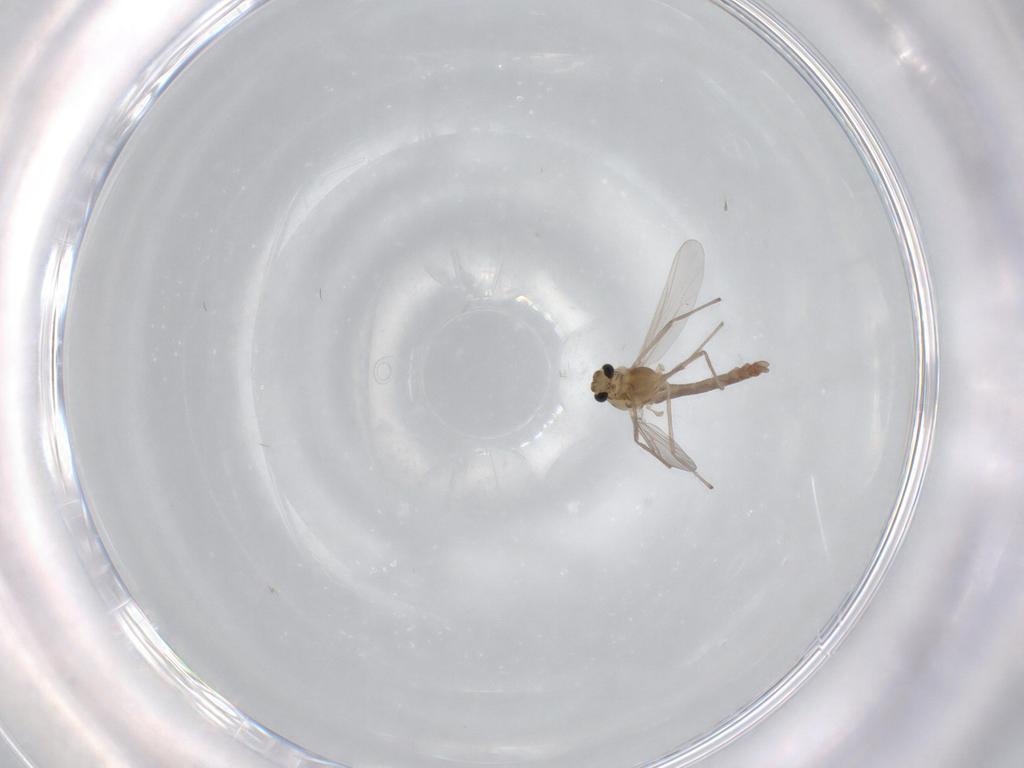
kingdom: Animalia
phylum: Arthropoda
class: Insecta
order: Diptera
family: Chironomidae
